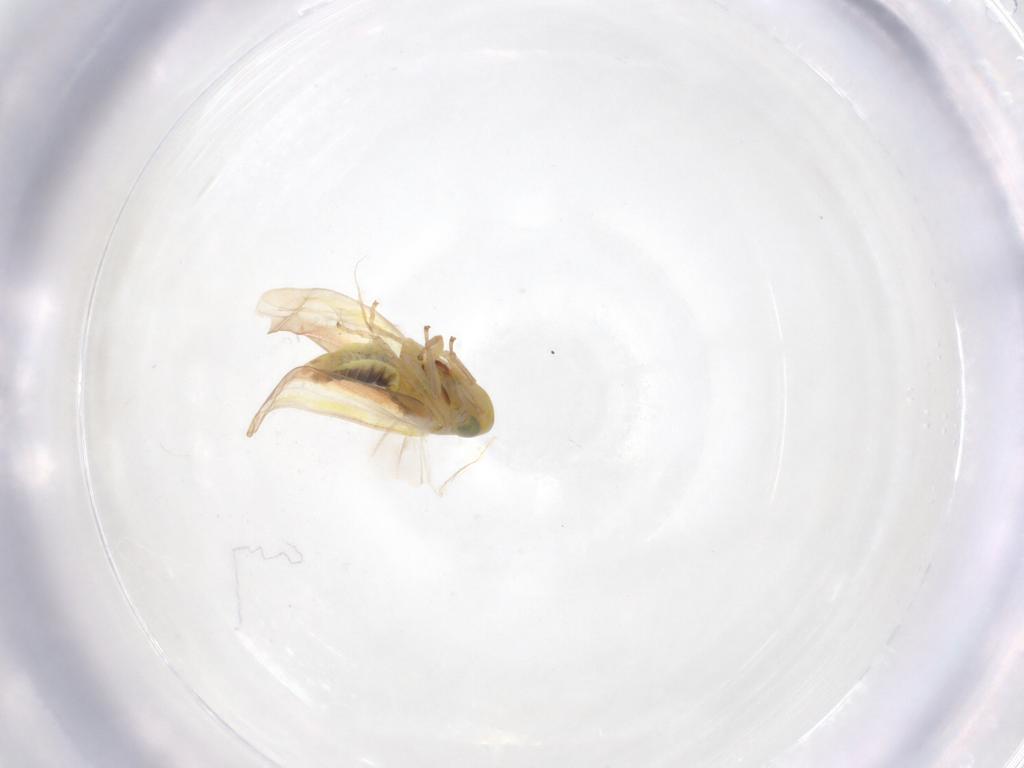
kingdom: Animalia
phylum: Arthropoda
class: Insecta
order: Hemiptera
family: Cicadellidae
